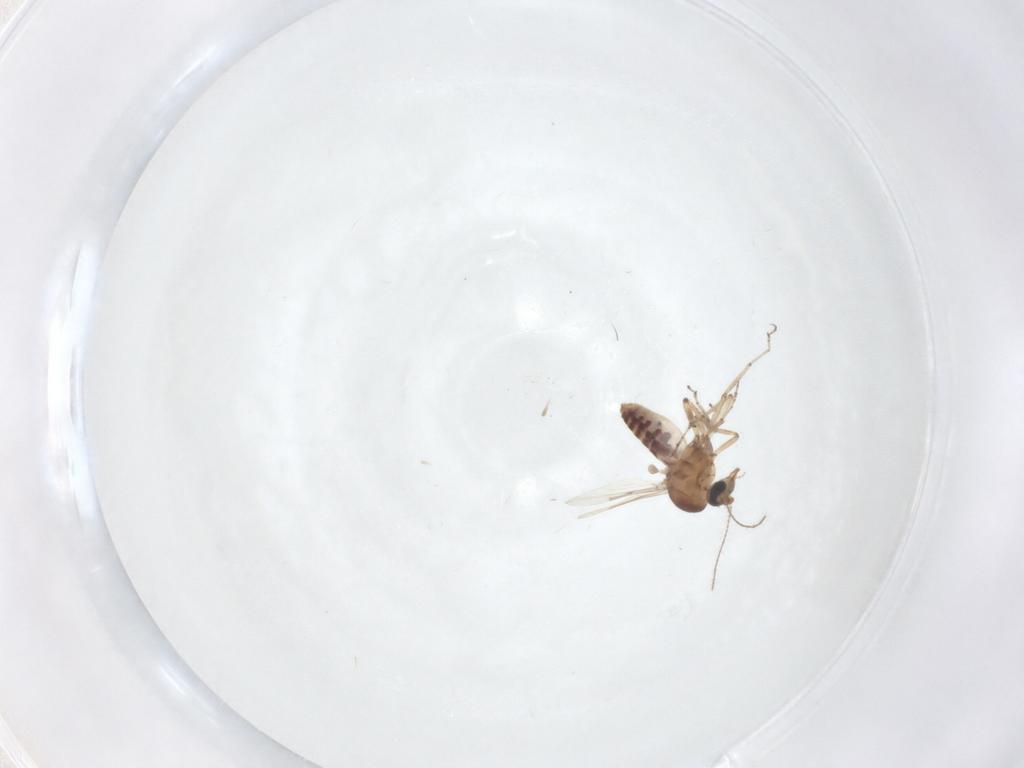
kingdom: Animalia
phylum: Arthropoda
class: Insecta
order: Diptera
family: Ceratopogonidae
